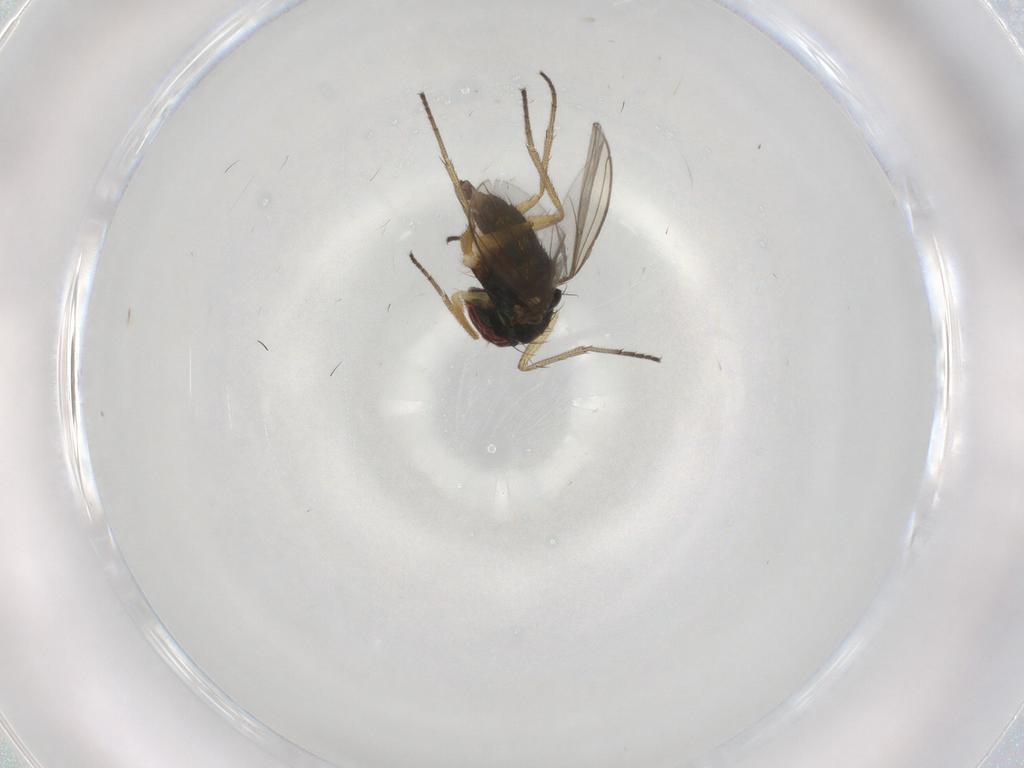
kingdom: Animalia
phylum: Arthropoda
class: Insecta
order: Diptera
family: Dolichopodidae
